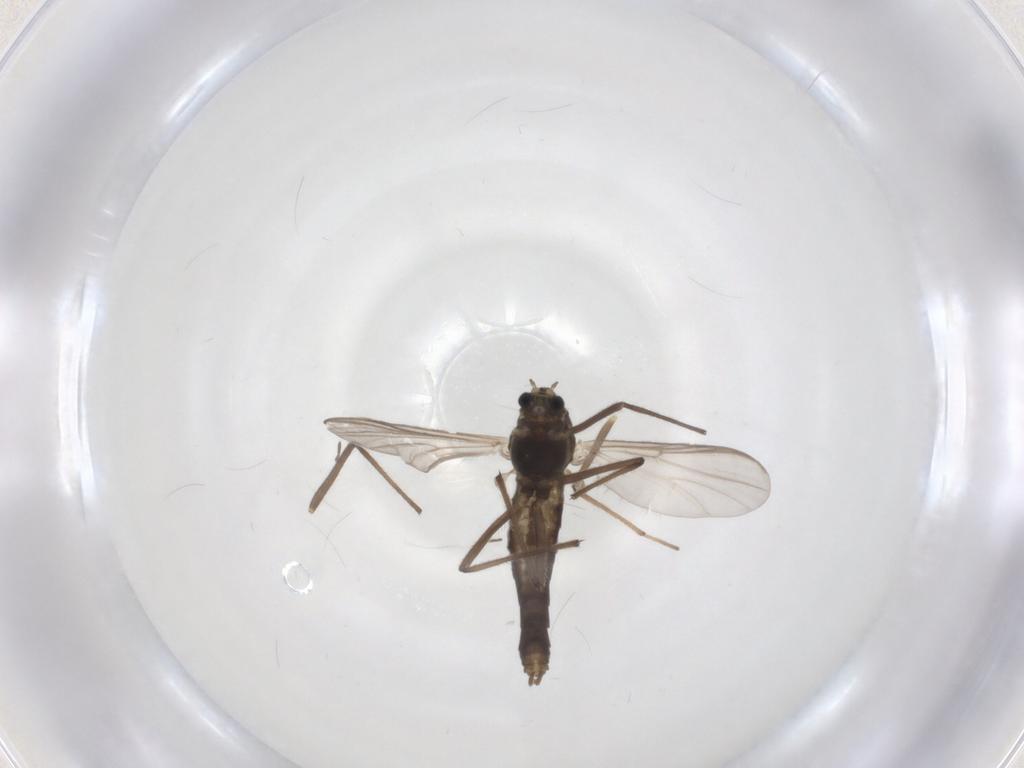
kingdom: Animalia
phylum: Arthropoda
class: Insecta
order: Diptera
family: Chironomidae
